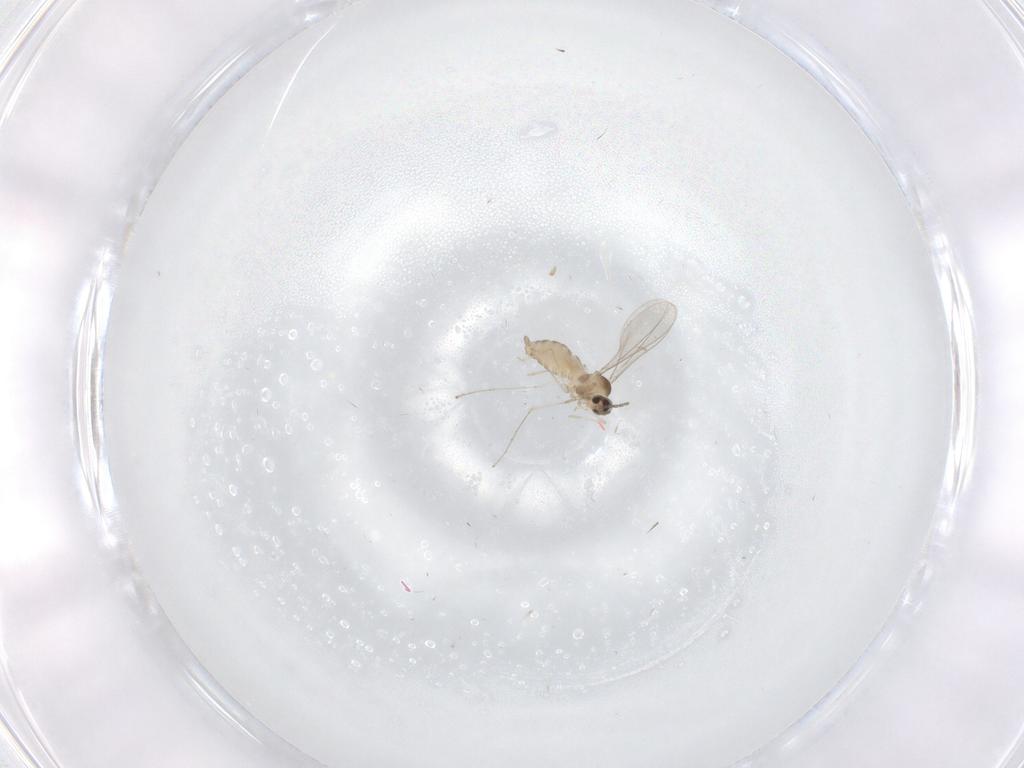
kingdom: Animalia
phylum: Arthropoda
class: Insecta
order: Diptera
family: Cecidomyiidae
